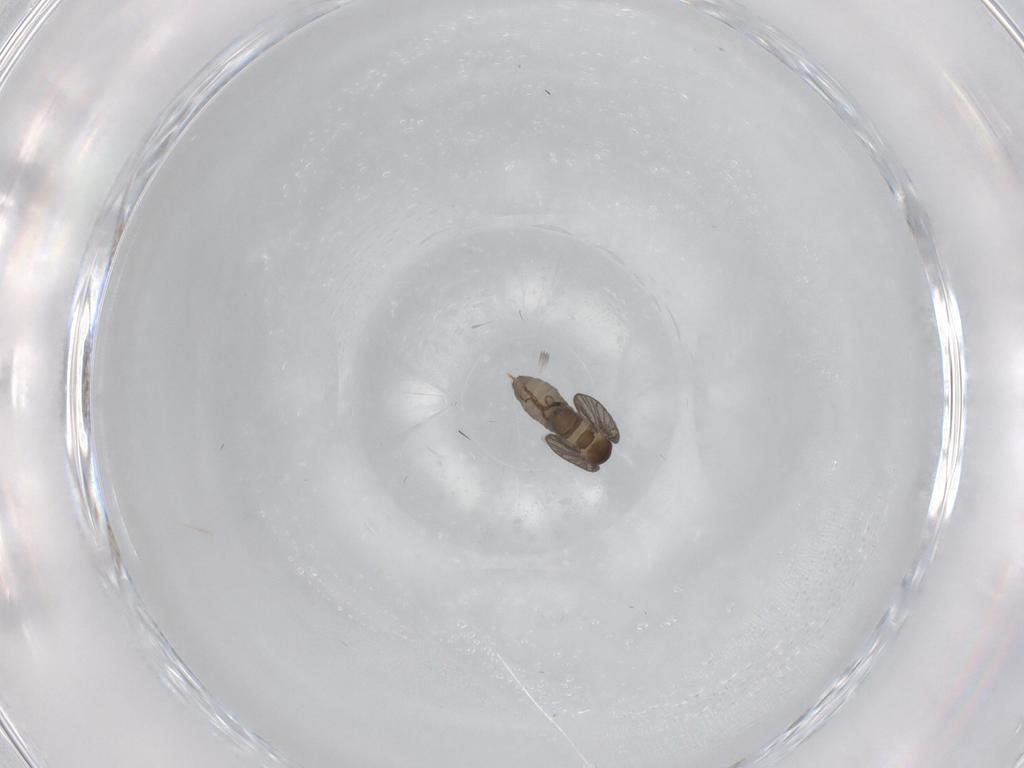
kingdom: Animalia
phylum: Arthropoda
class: Insecta
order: Diptera
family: Psychodidae
